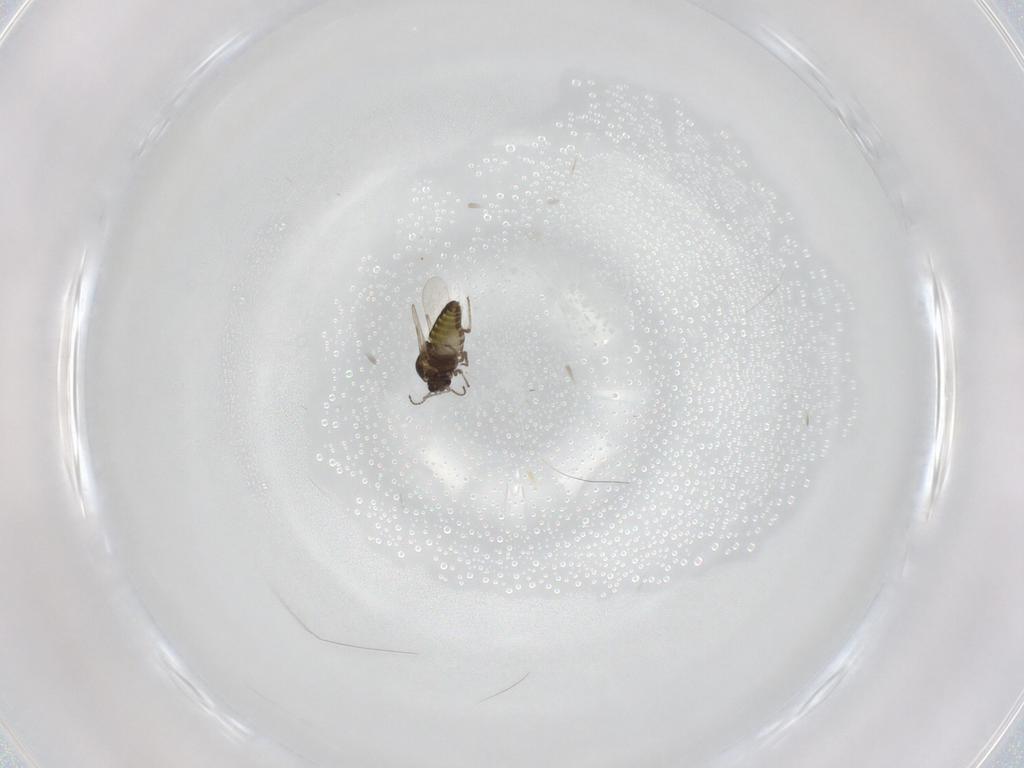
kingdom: Animalia
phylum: Arthropoda
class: Insecta
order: Diptera
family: Ceratopogonidae
